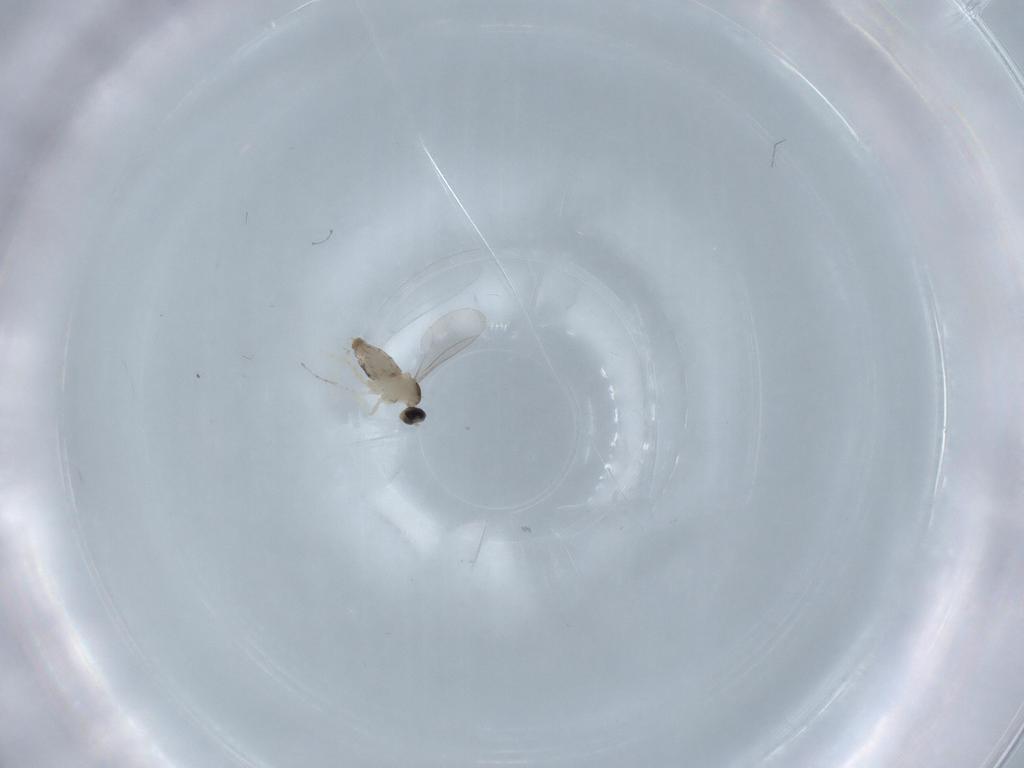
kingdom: Animalia
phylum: Arthropoda
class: Insecta
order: Diptera
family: Cecidomyiidae
